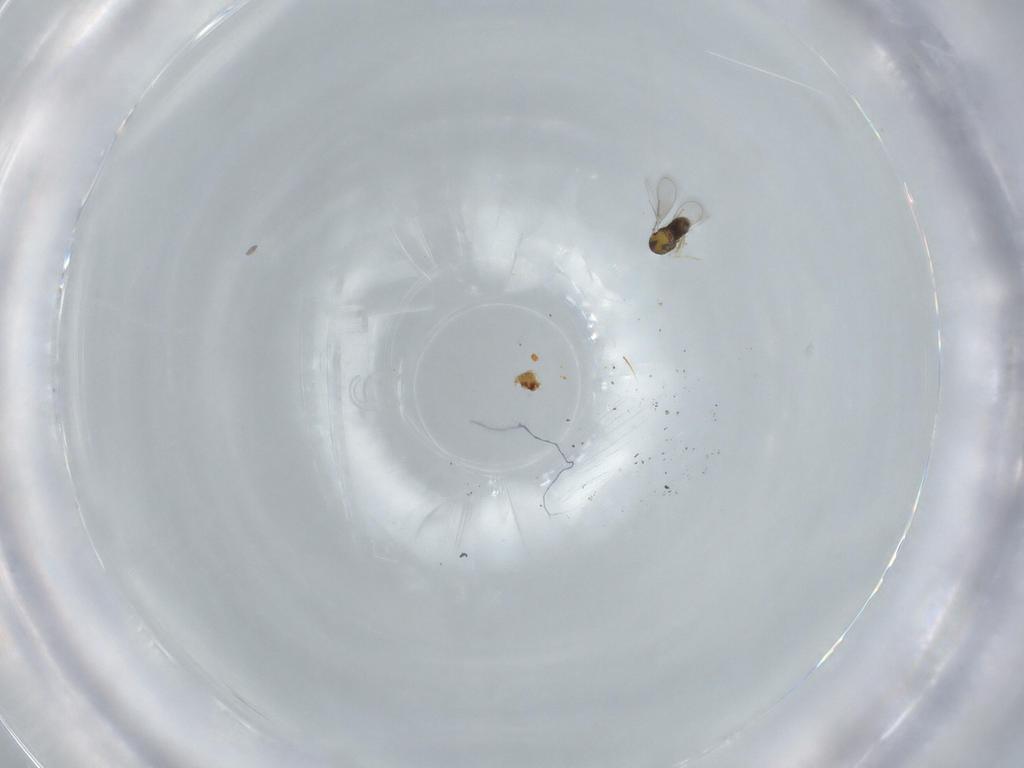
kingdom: Animalia
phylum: Arthropoda
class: Insecta
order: Hymenoptera
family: Aphelinidae
